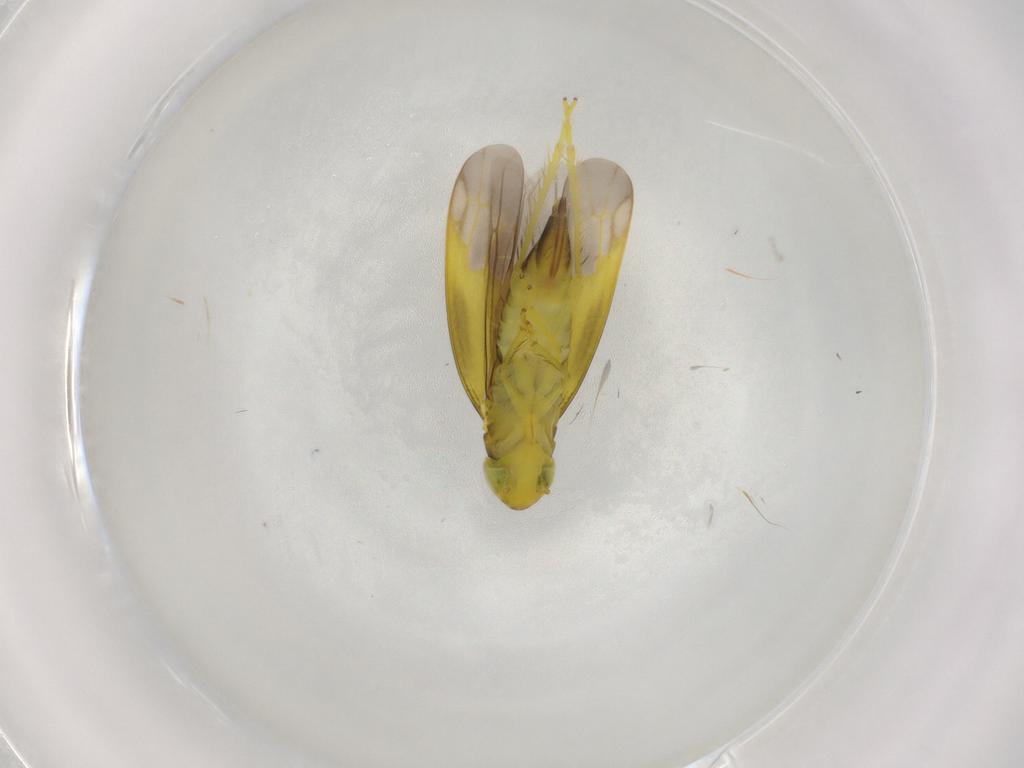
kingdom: Animalia
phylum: Arthropoda
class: Insecta
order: Hemiptera
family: Cicadellidae
